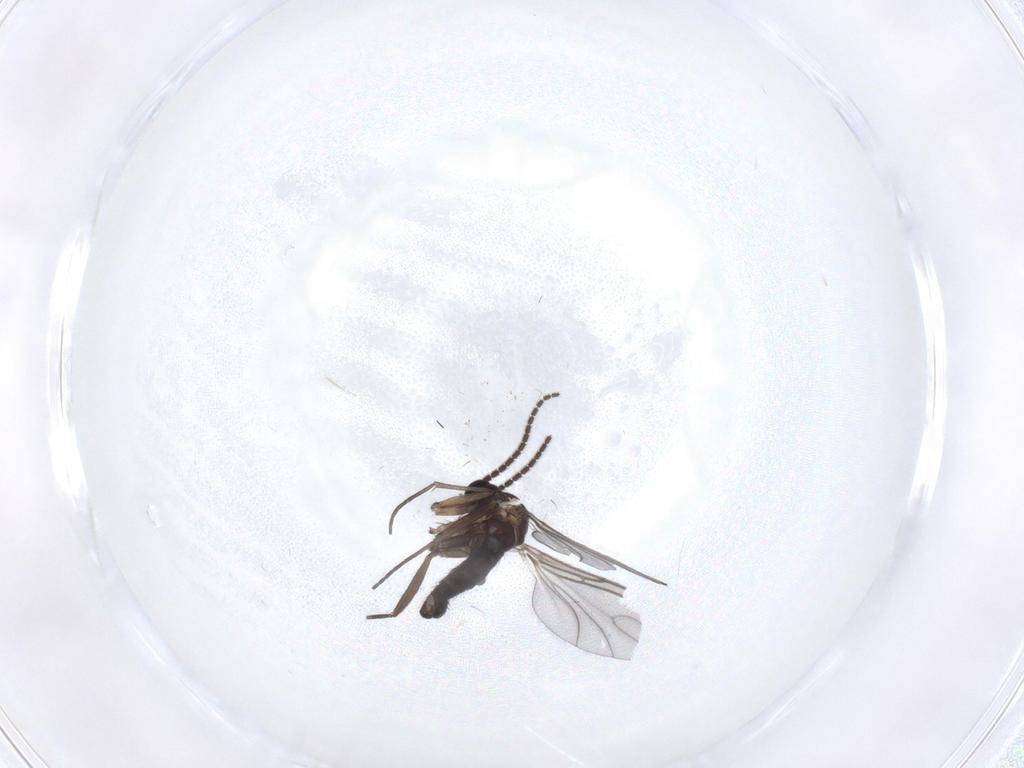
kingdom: Animalia
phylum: Arthropoda
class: Insecta
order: Diptera
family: Sciaridae
